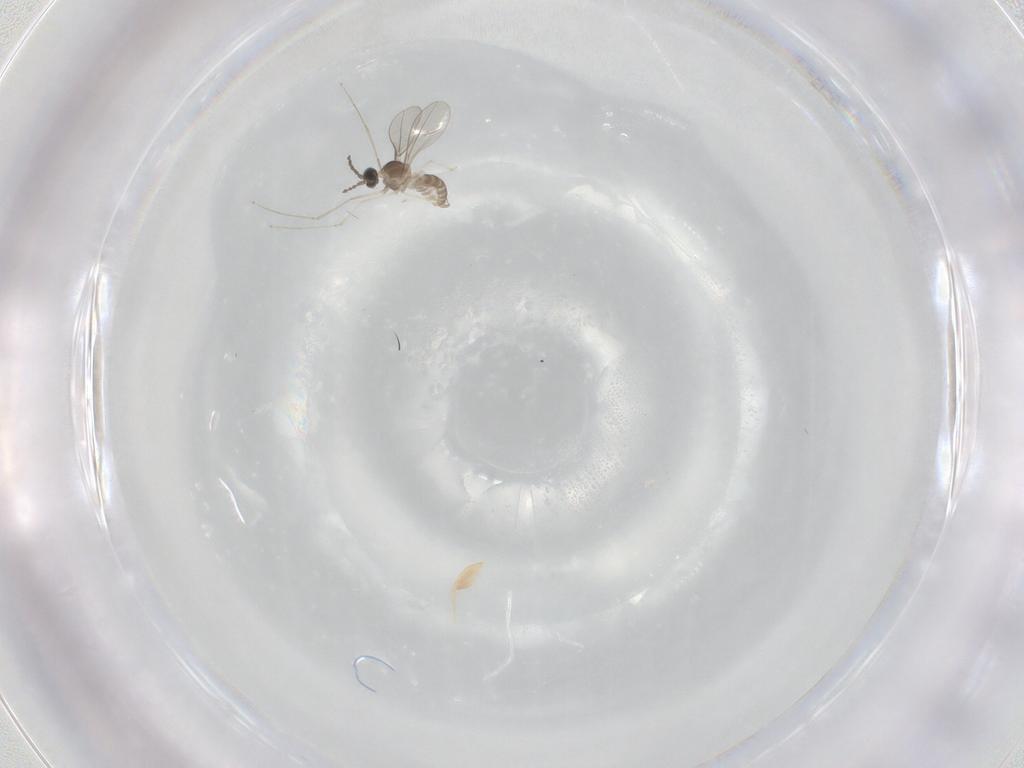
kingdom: Animalia
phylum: Arthropoda
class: Insecta
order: Diptera
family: Cecidomyiidae
